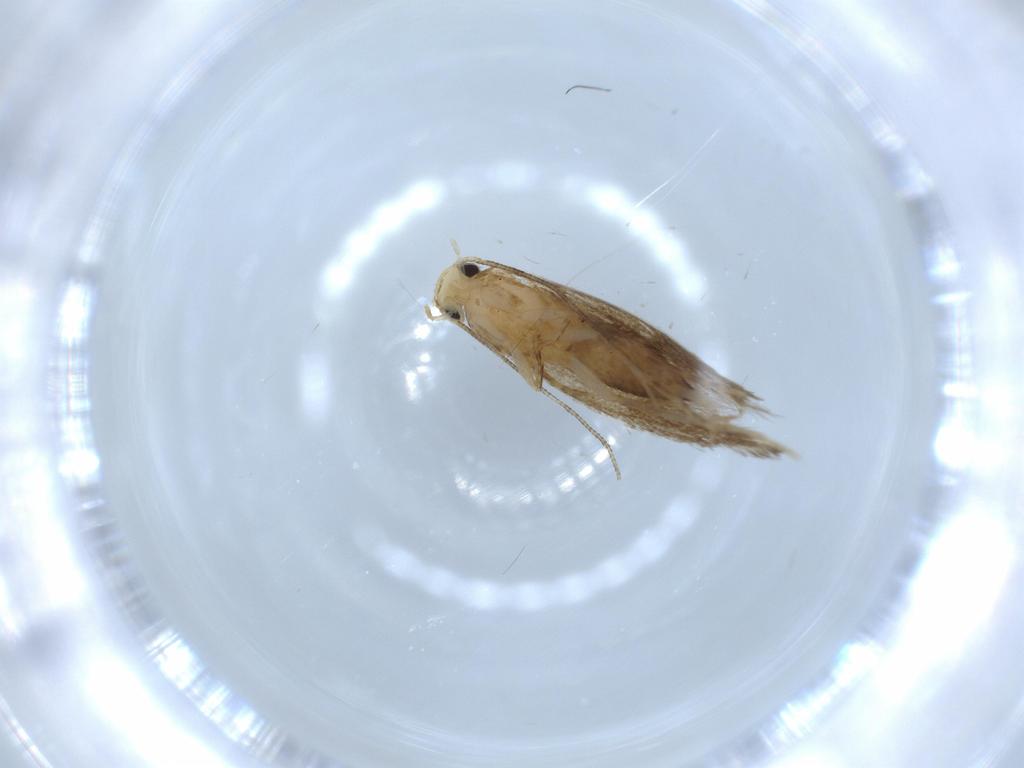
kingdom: Animalia
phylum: Arthropoda
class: Insecta
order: Lepidoptera
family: Tineidae
